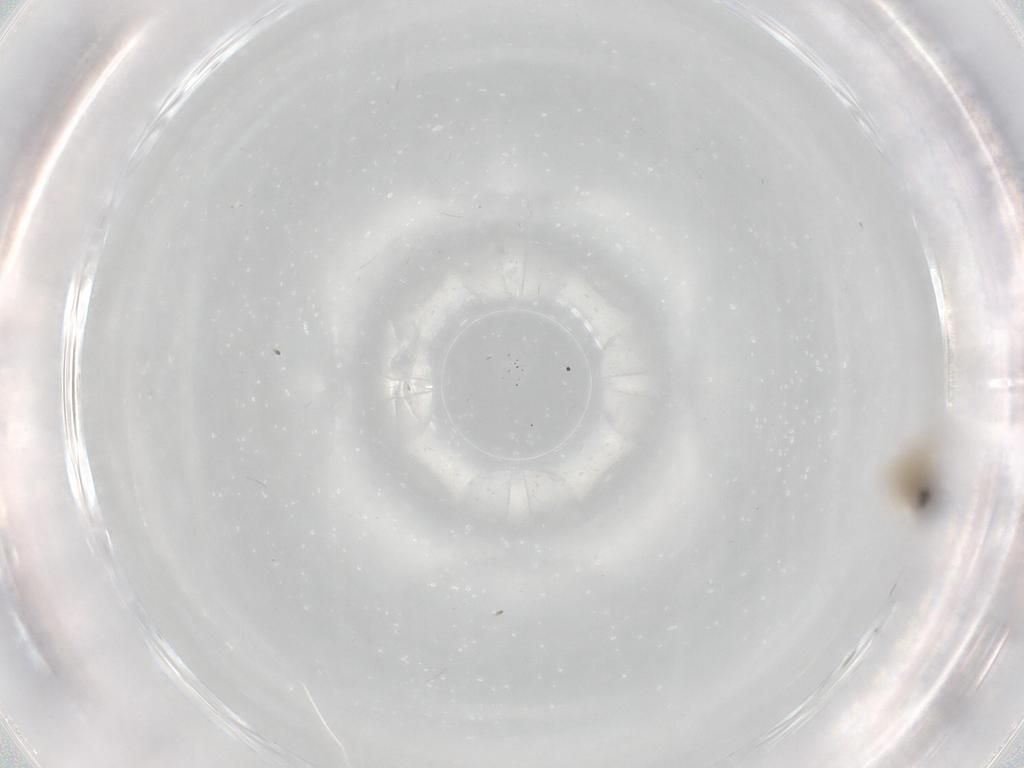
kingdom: Animalia
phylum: Arthropoda
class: Insecta
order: Diptera
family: Cecidomyiidae
